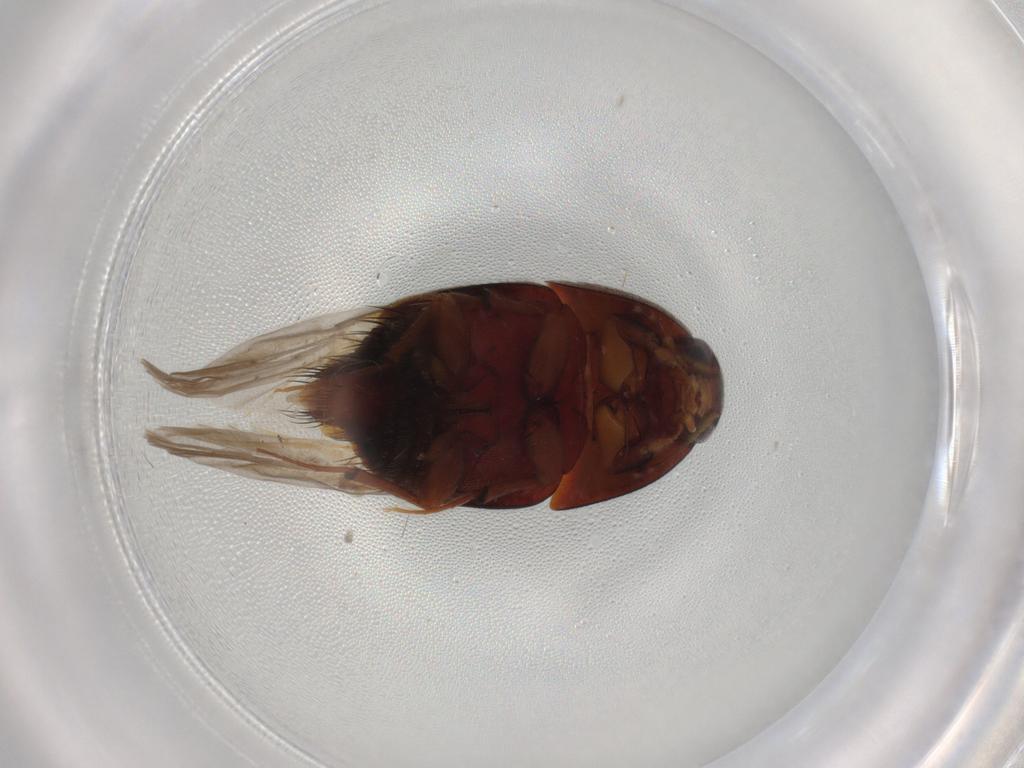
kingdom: Animalia
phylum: Arthropoda
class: Insecta
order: Coleoptera
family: Staphylinidae
